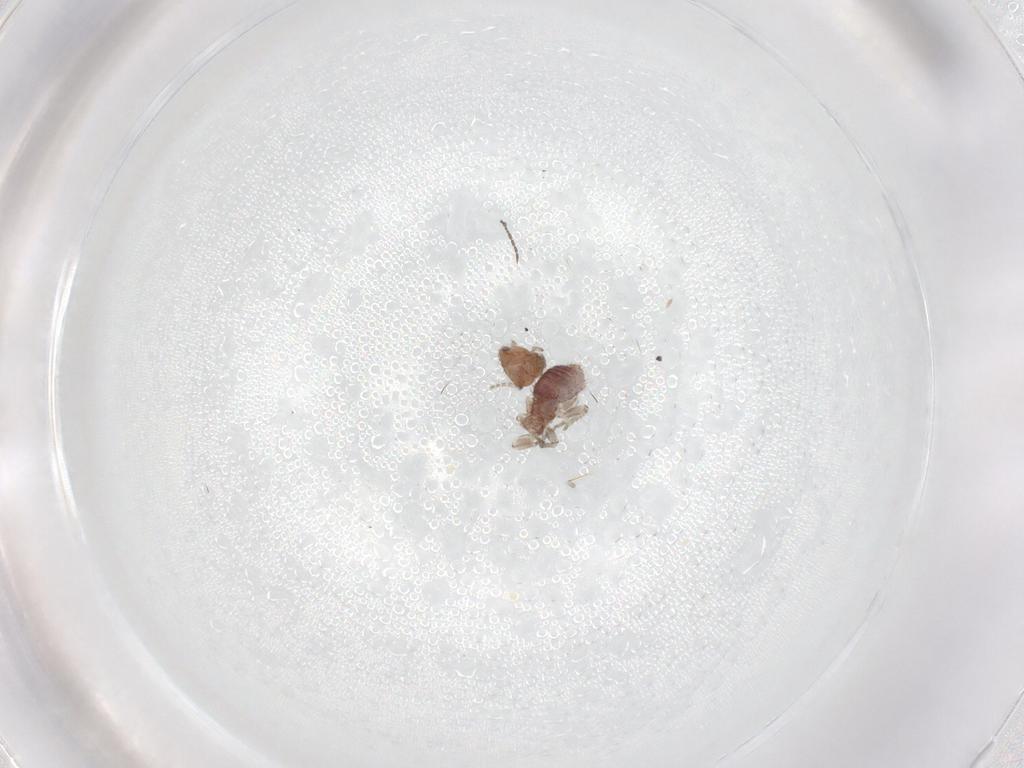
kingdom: Animalia
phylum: Arthropoda
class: Insecta
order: Psocodea
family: Pseudocaeciliidae
